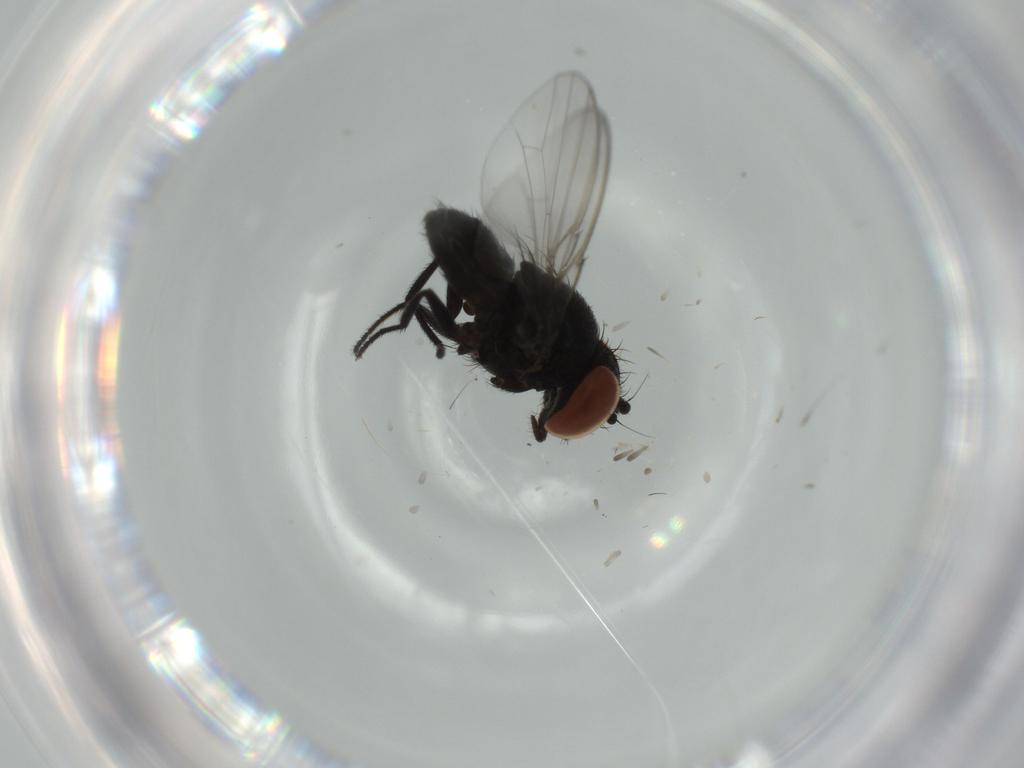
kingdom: Animalia
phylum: Arthropoda
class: Insecta
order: Diptera
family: Milichiidae
